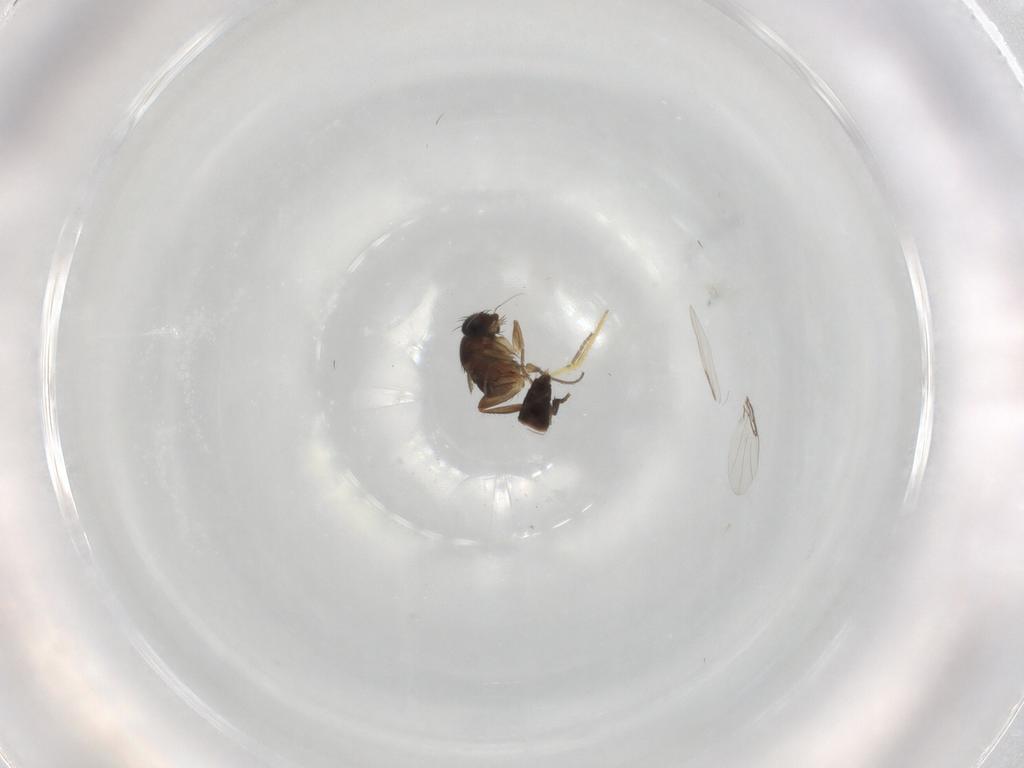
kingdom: Animalia
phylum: Arthropoda
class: Insecta
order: Diptera
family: Phoridae
